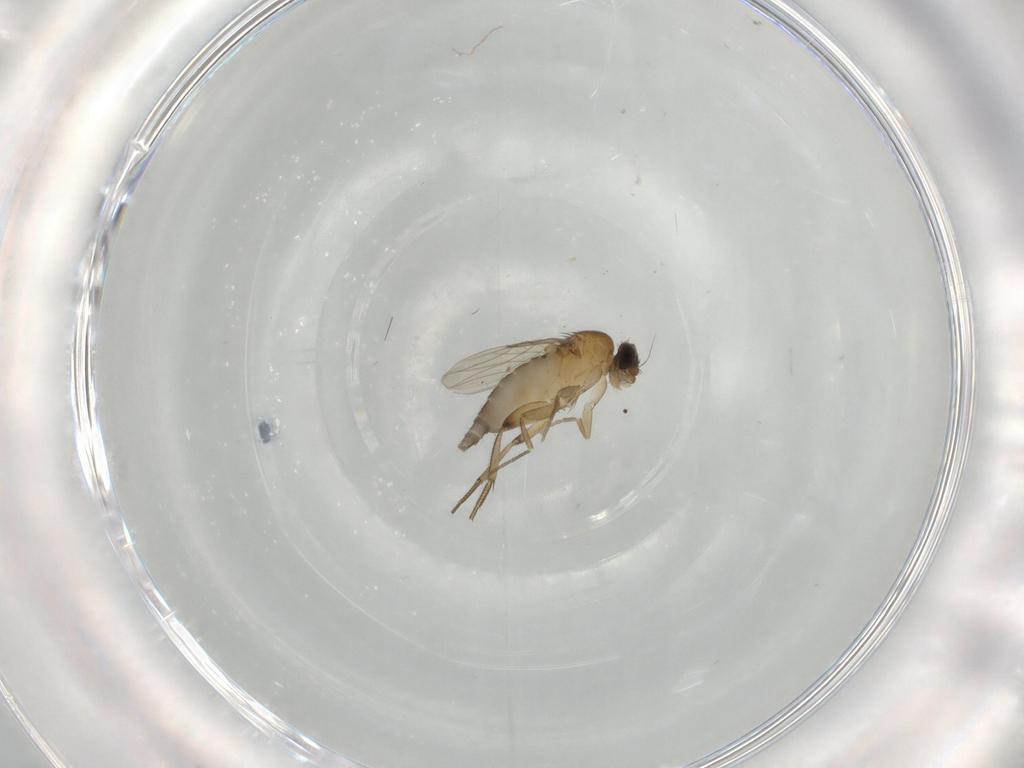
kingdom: Animalia
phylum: Arthropoda
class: Insecta
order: Diptera
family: Phoridae
